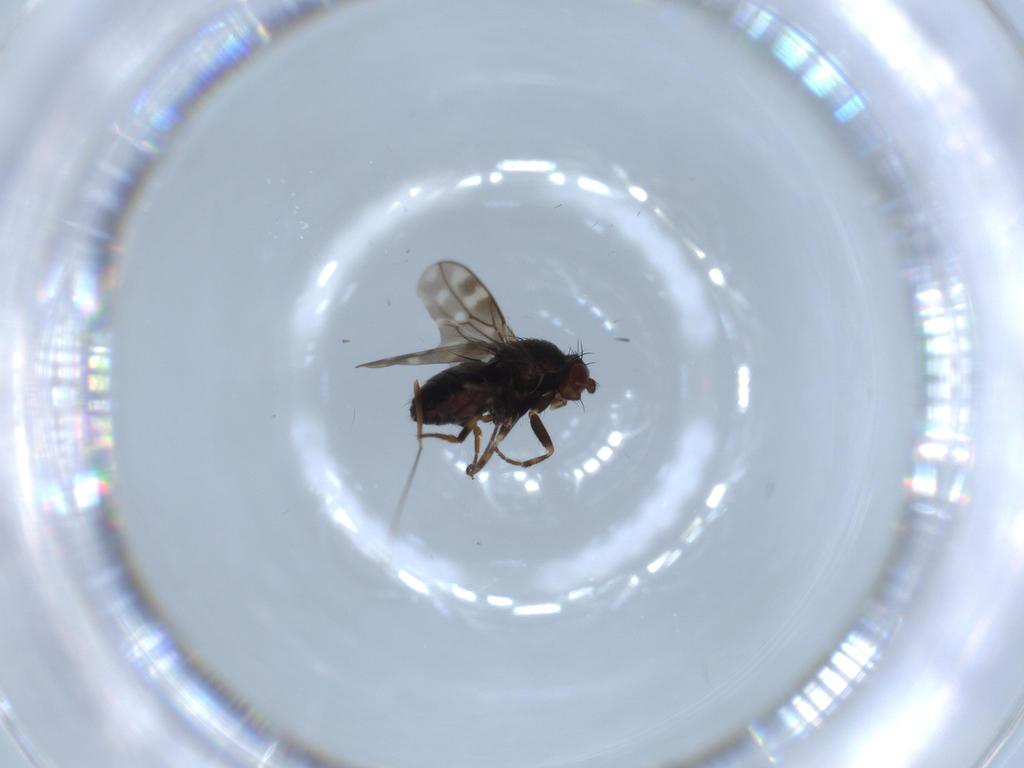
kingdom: Animalia
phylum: Arthropoda
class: Insecta
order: Diptera
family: Sphaeroceridae
